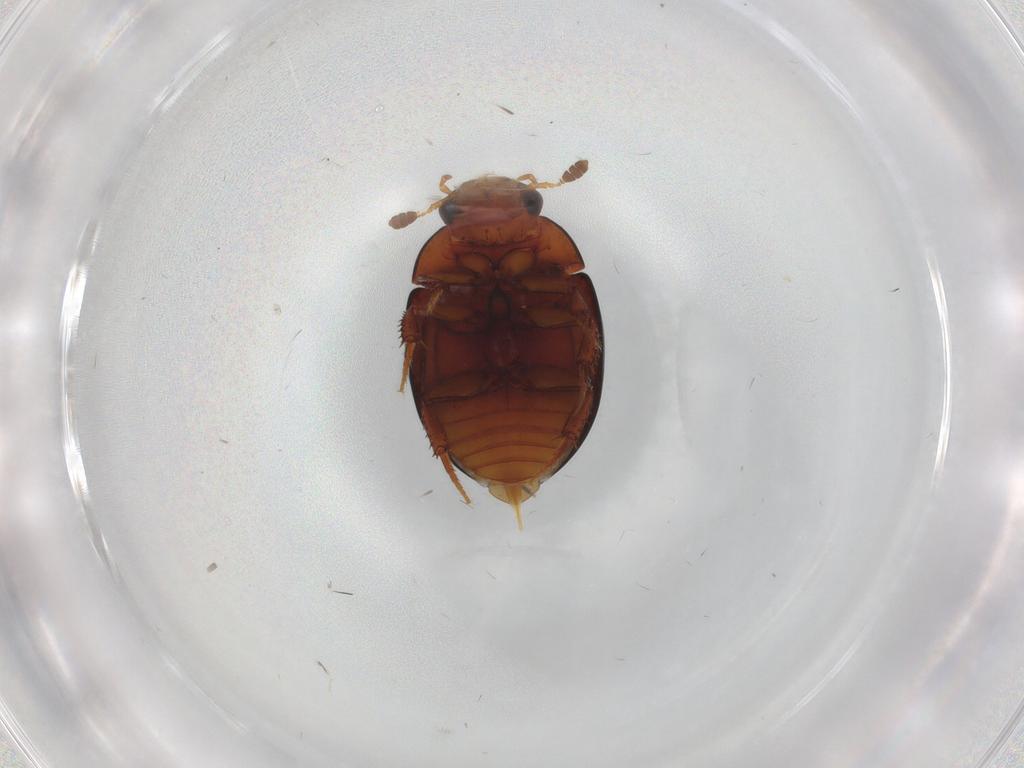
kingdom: Animalia
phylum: Arthropoda
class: Insecta
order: Coleoptera
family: Hydrophilidae
